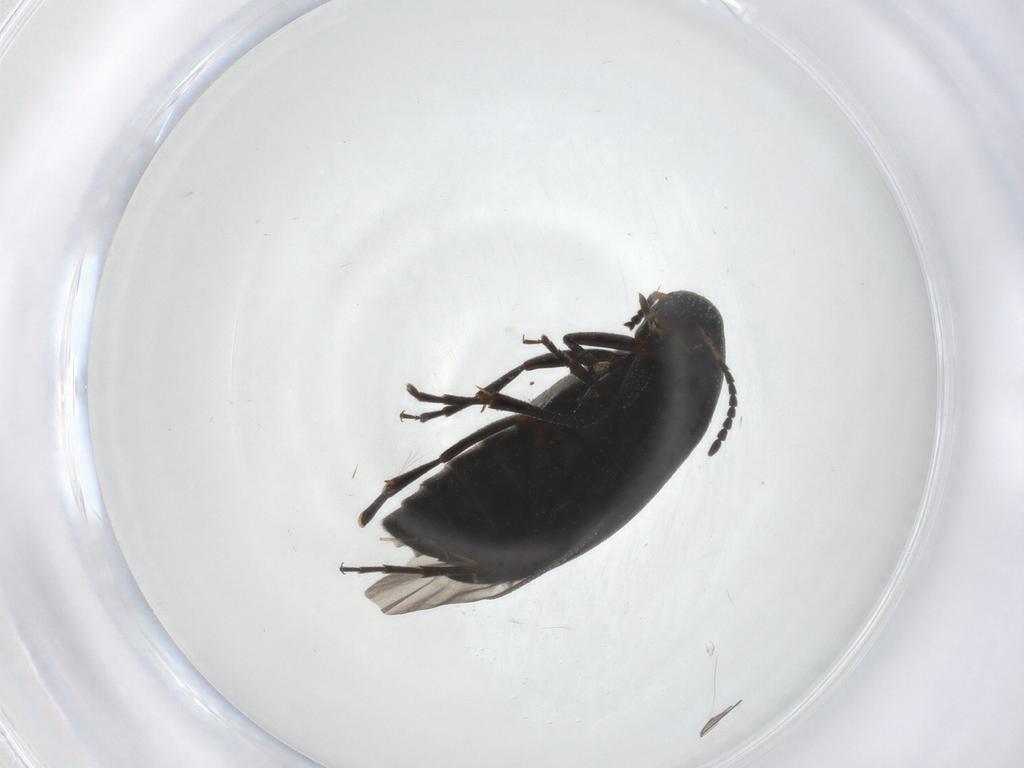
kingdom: Animalia
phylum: Arthropoda
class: Insecta
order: Coleoptera
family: Scraptiidae
